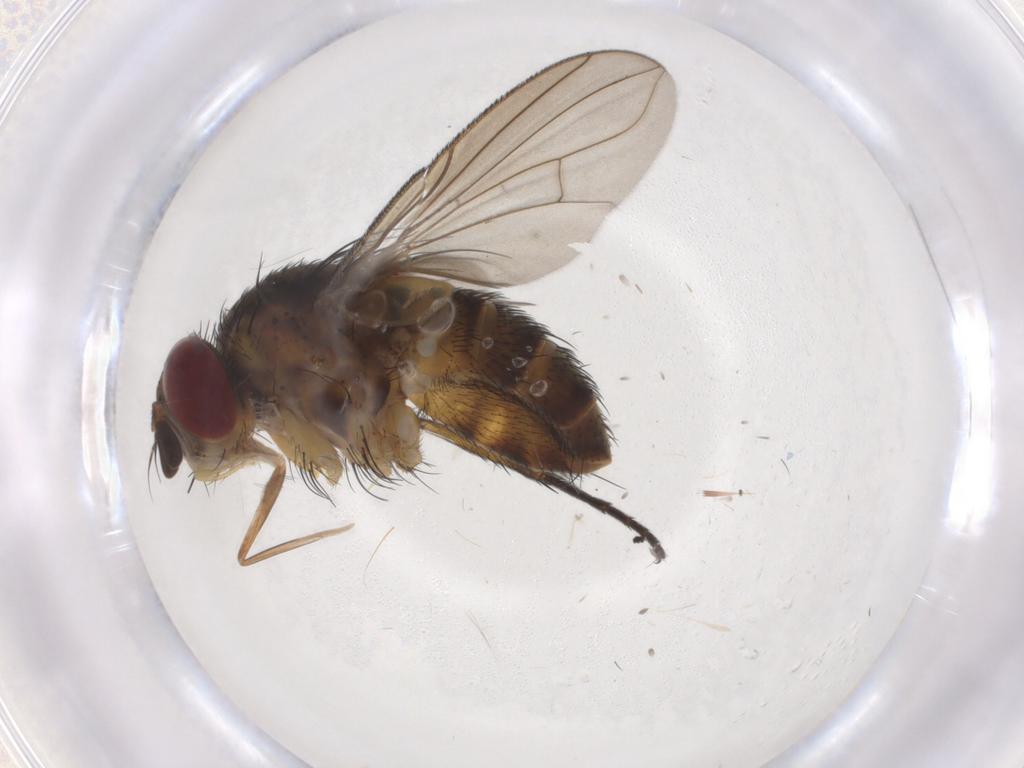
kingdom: Animalia
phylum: Arthropoda
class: Insecta
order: Diptera
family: Tachinidae
